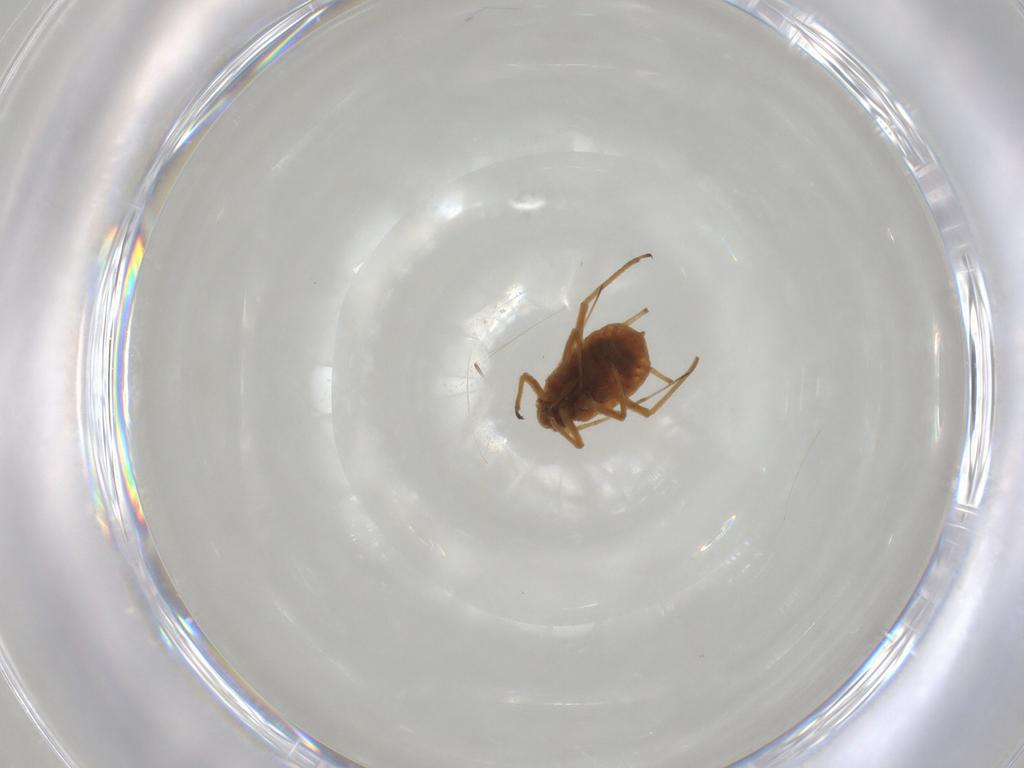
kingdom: Animalia
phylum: Arthropoda
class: Insecta
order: Hemiptera
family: Aphididae
